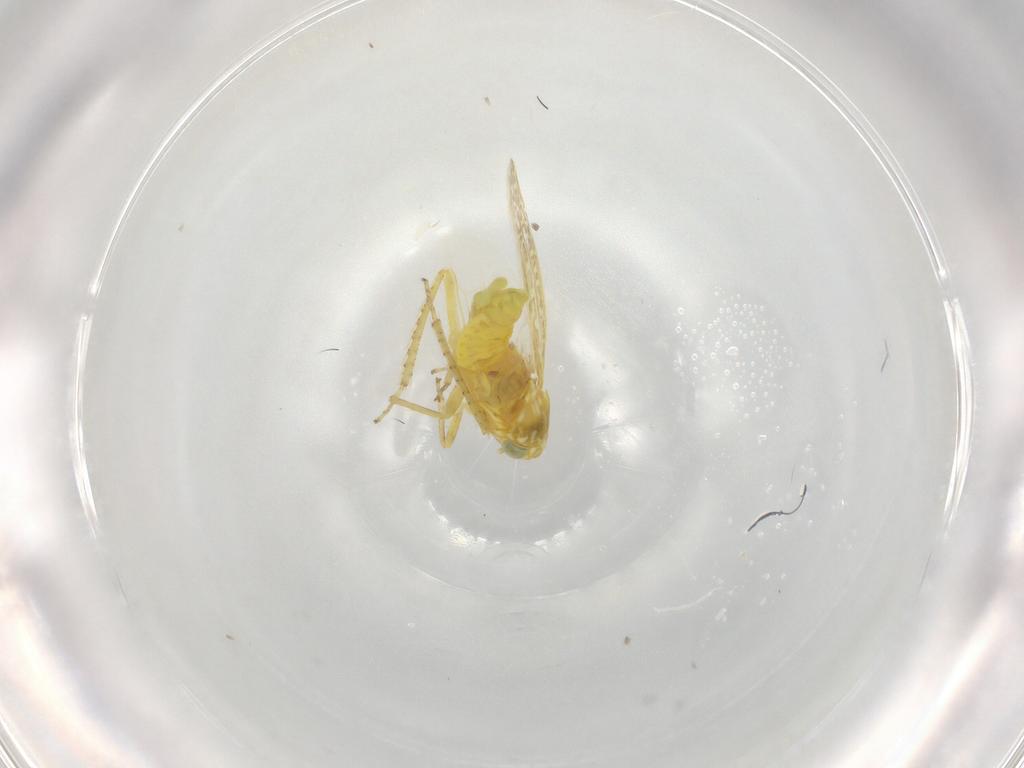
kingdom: Animalia
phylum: Arthropoda
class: Insecta
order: Hemiptera
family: Cicadellidae
